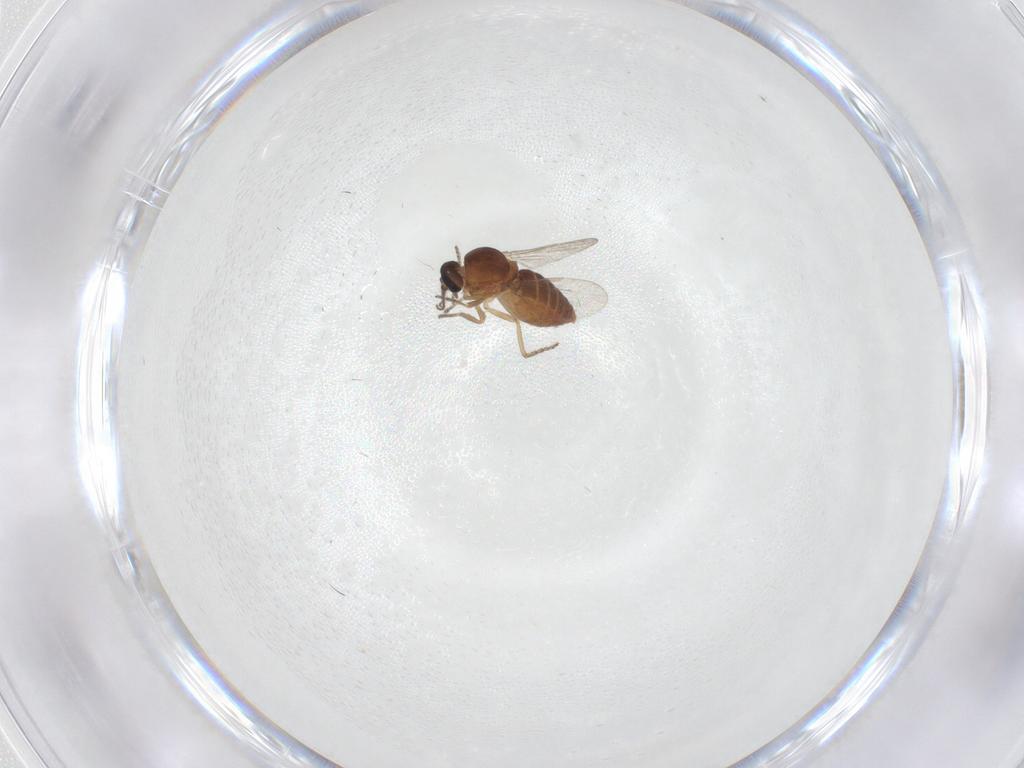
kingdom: Animalia
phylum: Arthropoda
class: Insecta
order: Diptera
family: Ceratopogonidae
